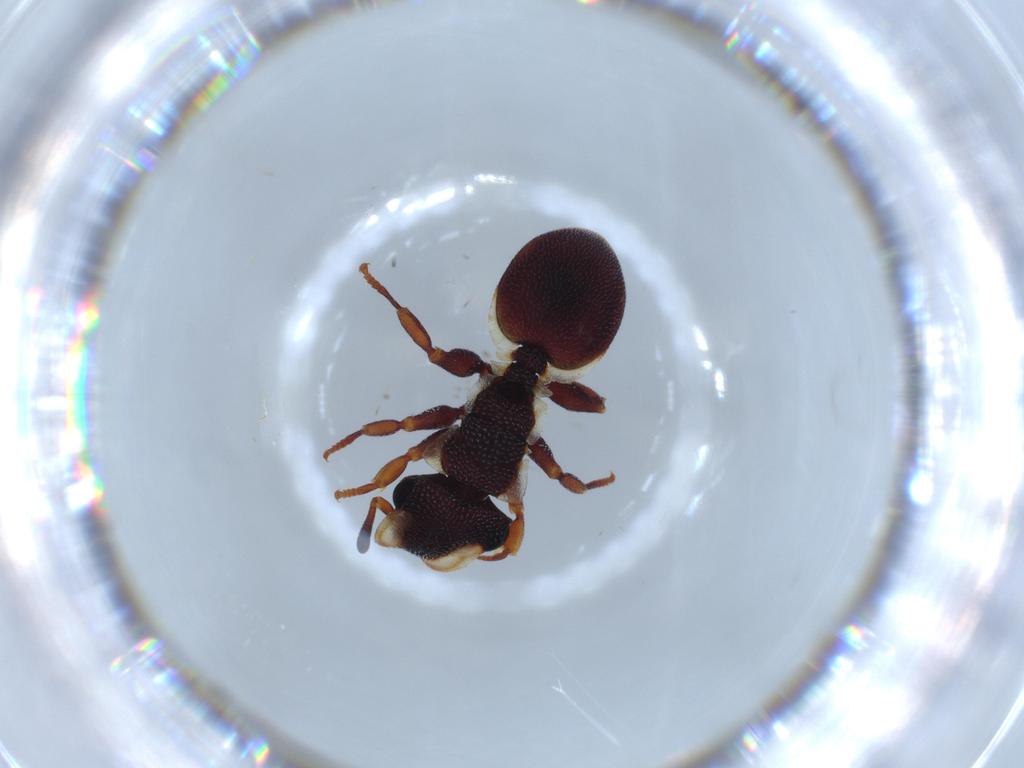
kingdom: Animalia
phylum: Arthropoda
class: Insecta
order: Hymenoptera
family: Formicidae
